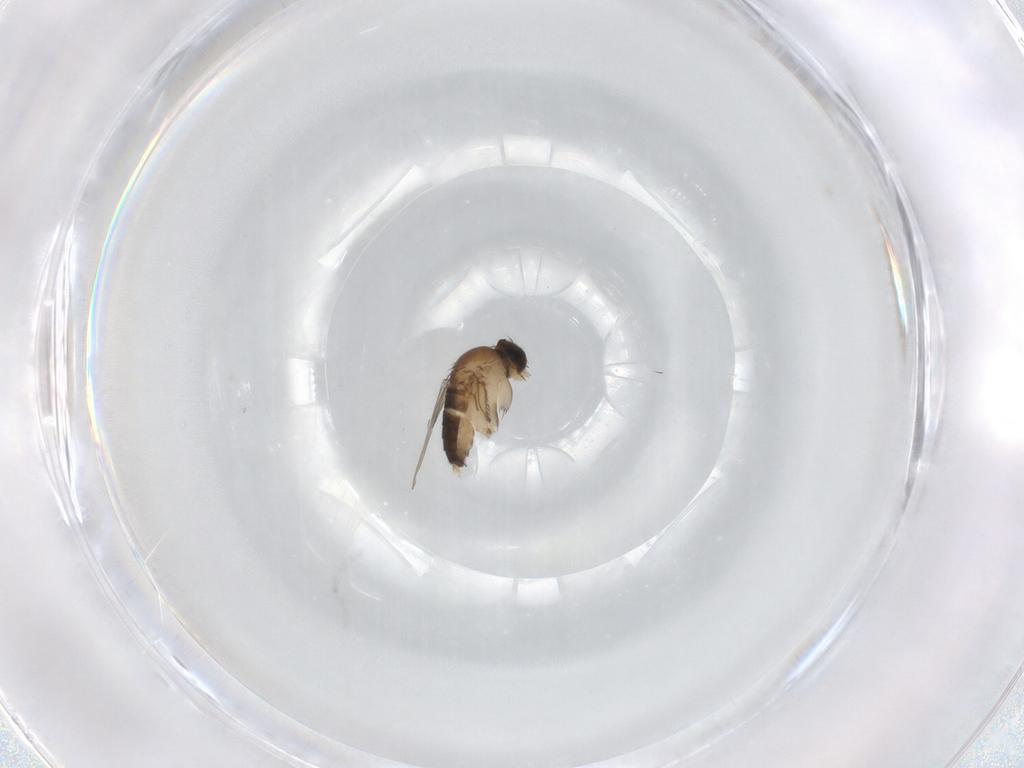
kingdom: Animalia
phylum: Arthropoda
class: Insecta
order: Diptera
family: Phoridae
